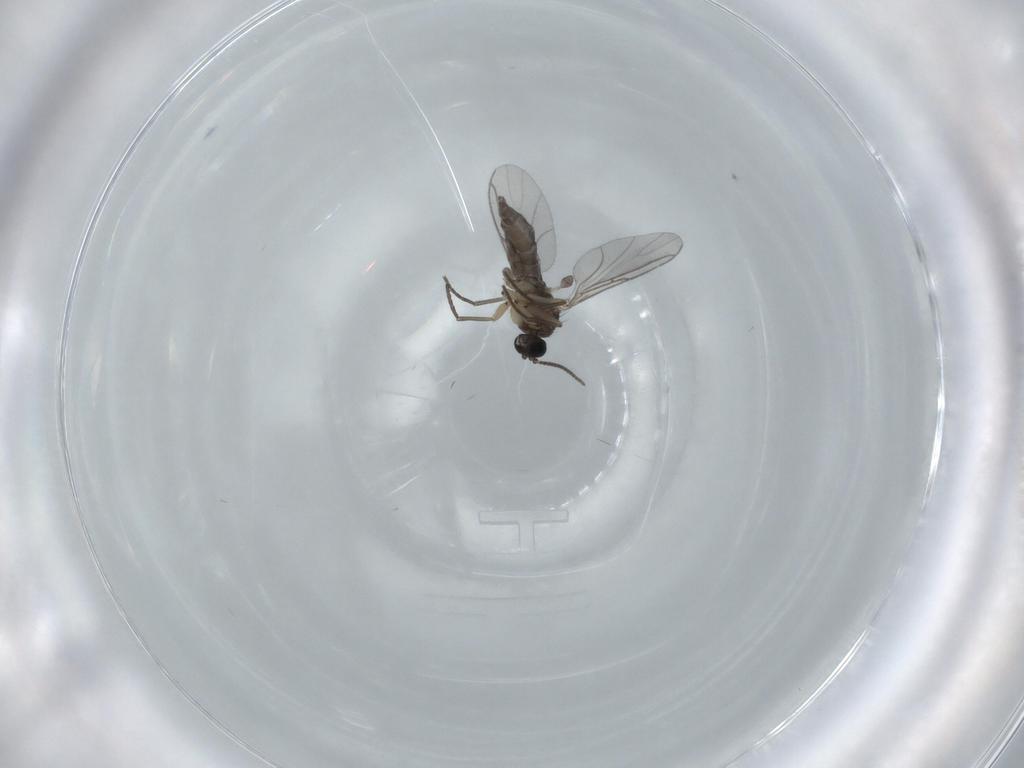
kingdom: Animalia
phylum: Arthropoda
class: Insecta
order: Diptera
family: Sciaridae
